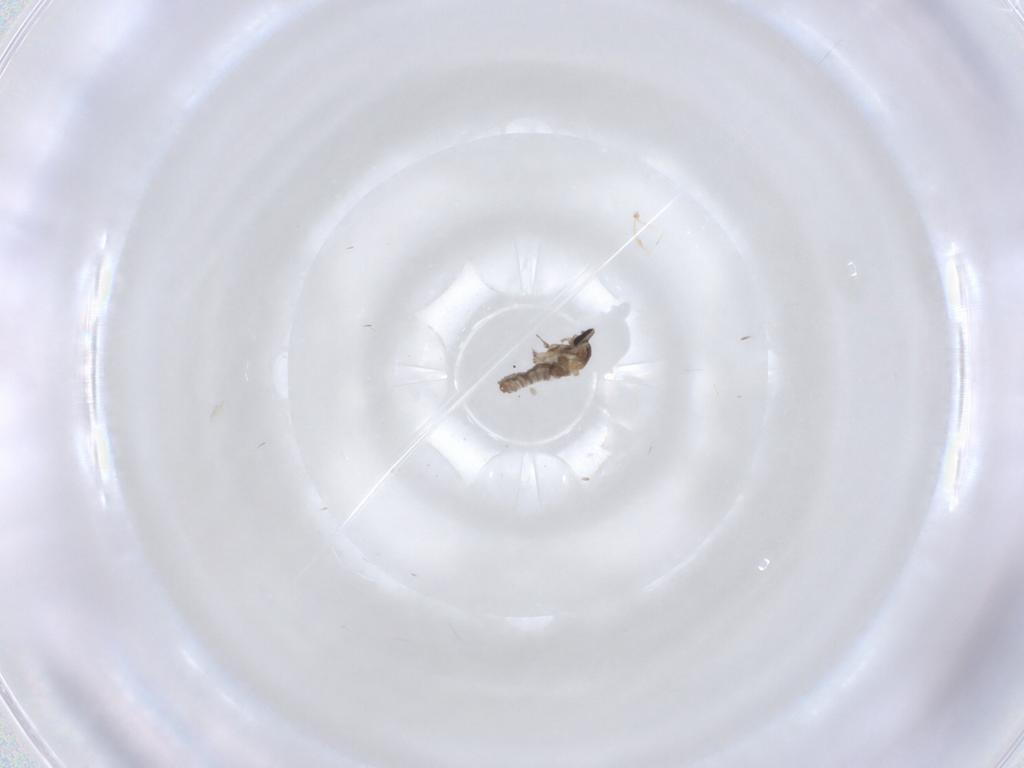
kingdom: Animalia
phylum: Arthropoda
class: Insecta
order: Diptera
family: Cecidomyiidae
